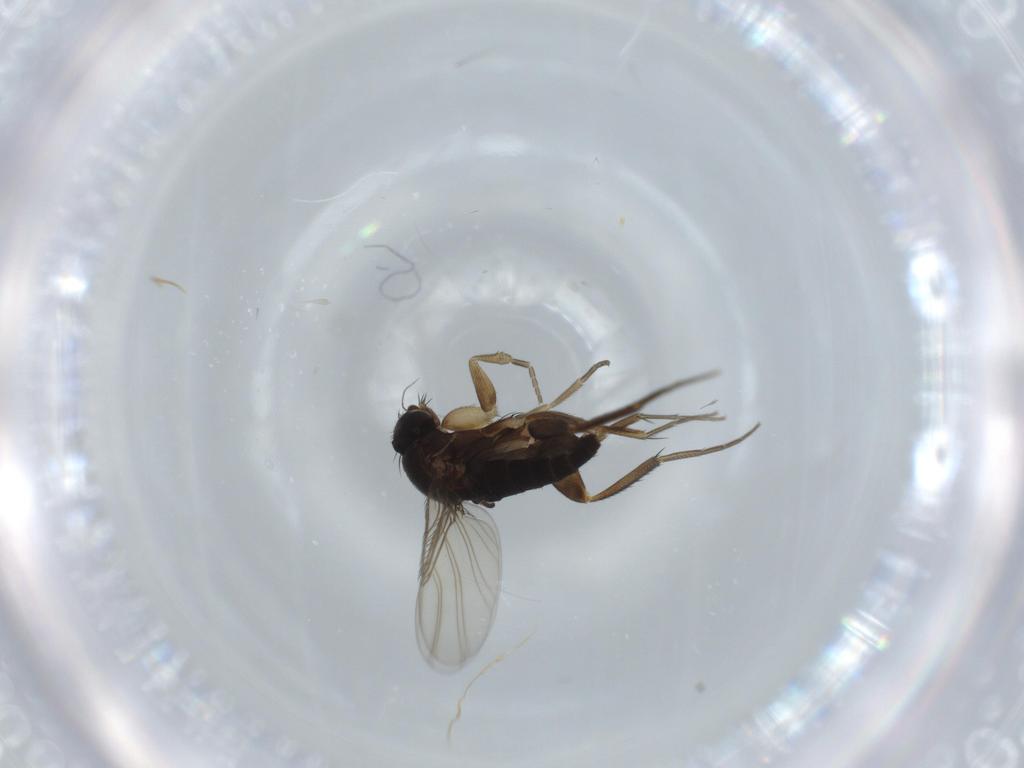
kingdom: Animalia
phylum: Arthropoda
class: Insecta
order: Diptera
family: Phoridae
